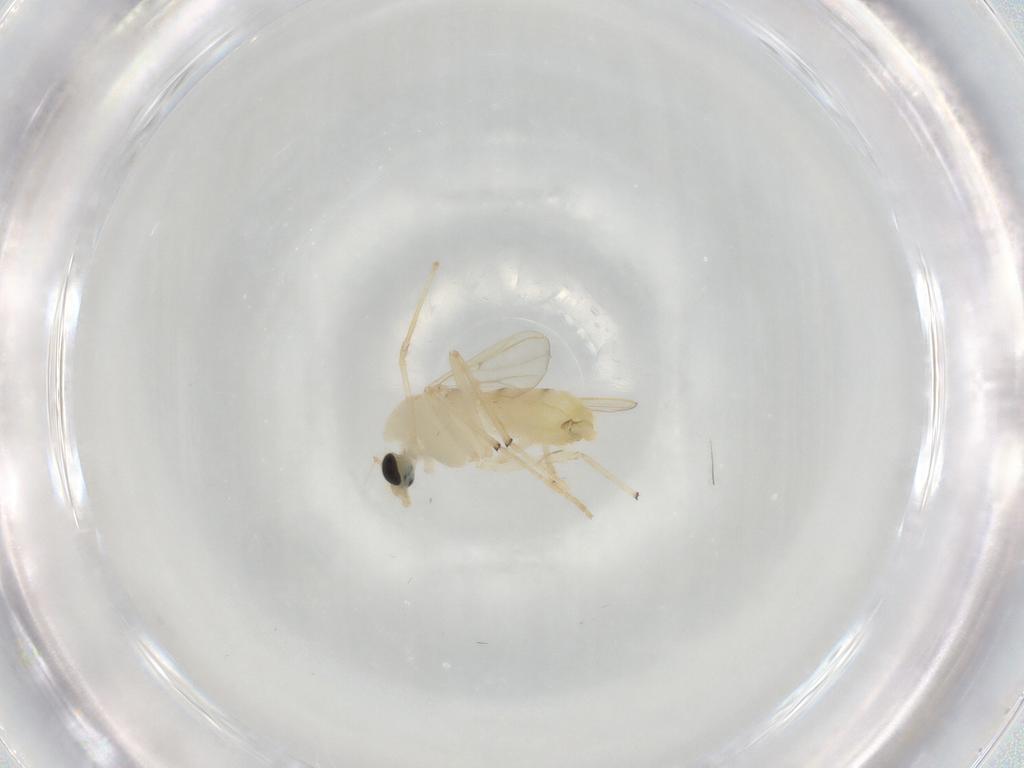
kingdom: Animalia
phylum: Arthropoda
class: Insecta
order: Diptera
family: Chironomidae
